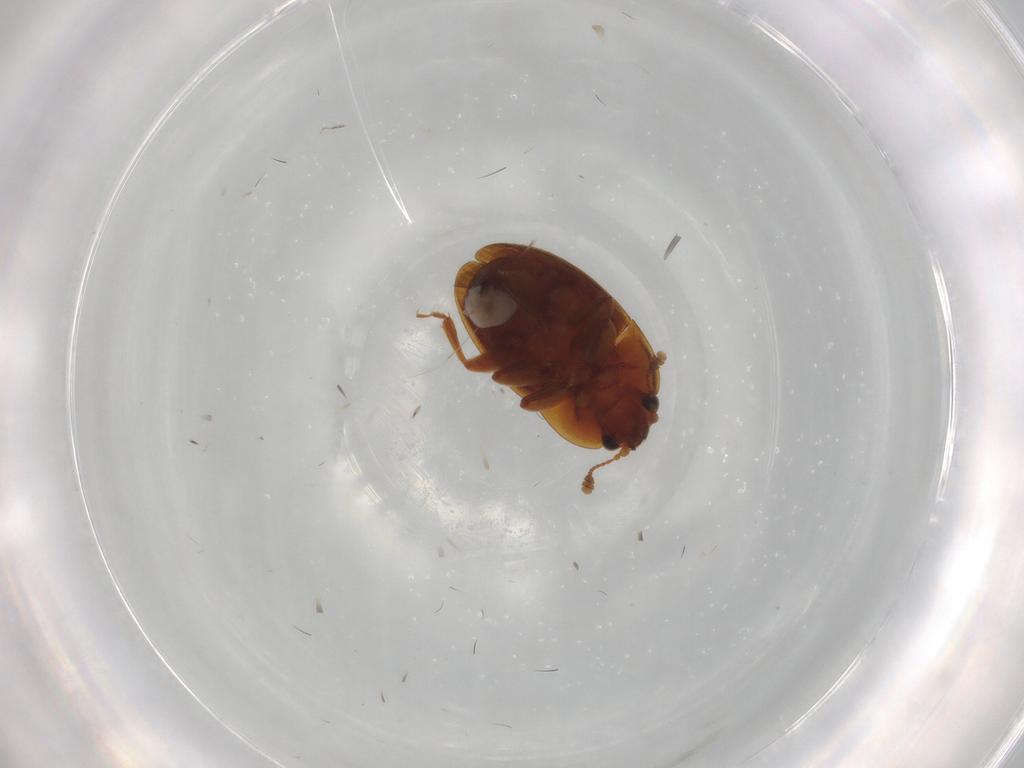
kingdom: Animalia
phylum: Arthropoda
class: Insecta
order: Coleoptera
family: Nitidulidae
